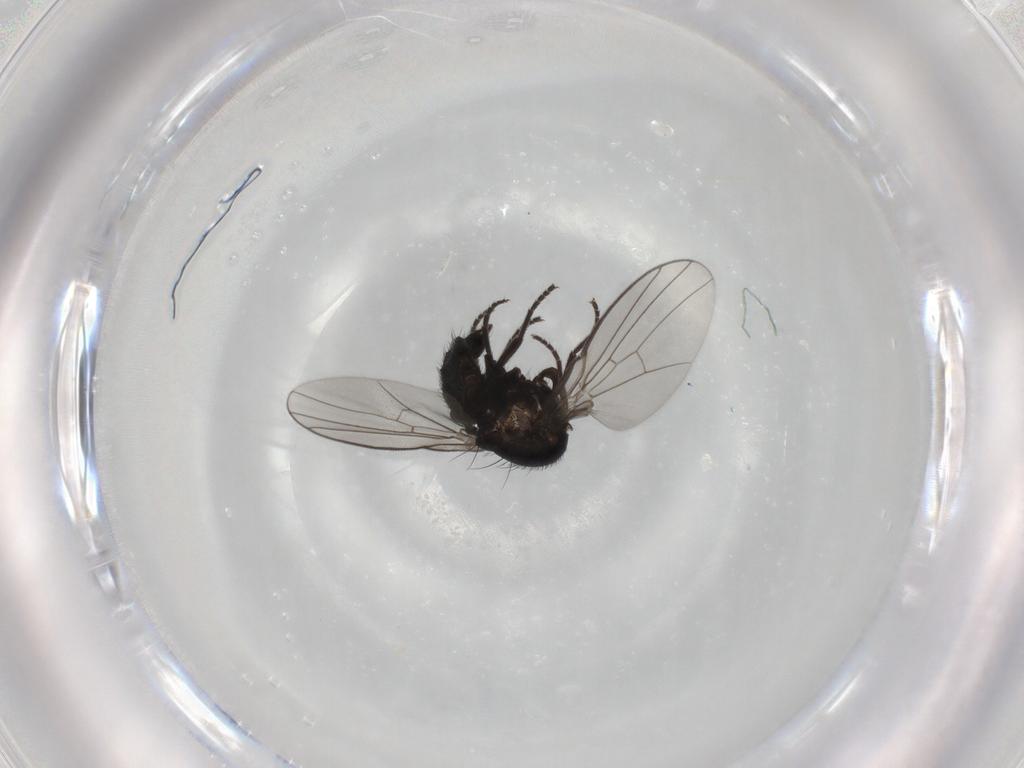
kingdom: Animalia
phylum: Arthropoda
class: Insecta
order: Diptera
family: Agromyzidae
